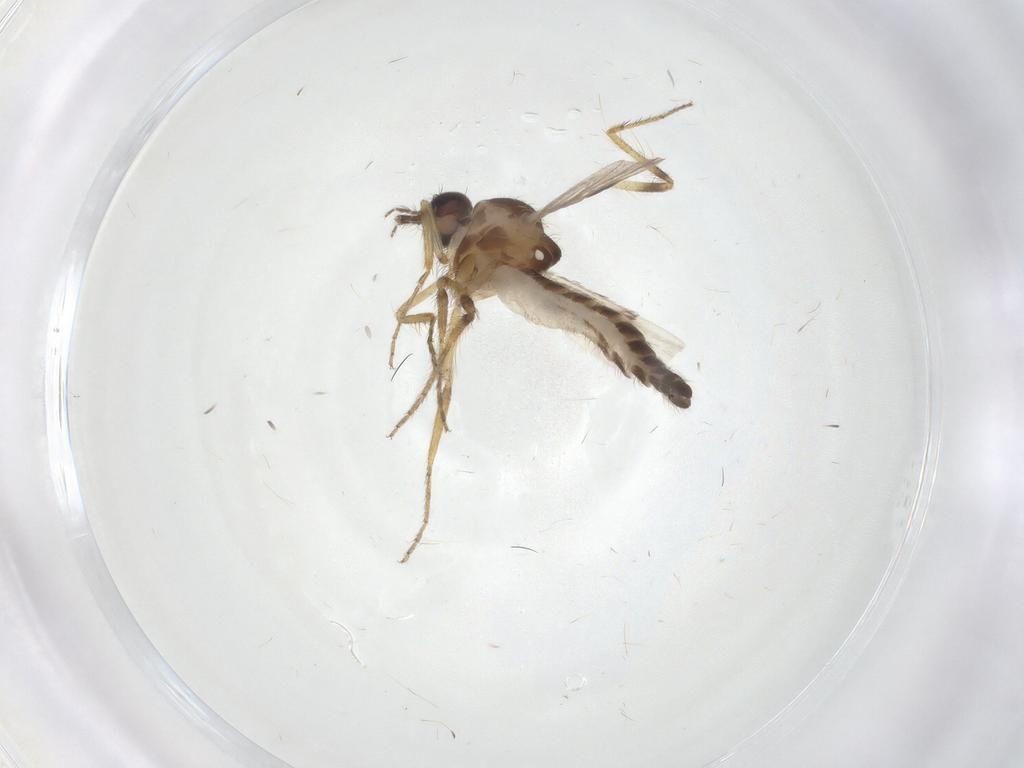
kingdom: Animalia
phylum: Arthropoda
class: Insecta
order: Diptera
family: Ceratopogonidae
